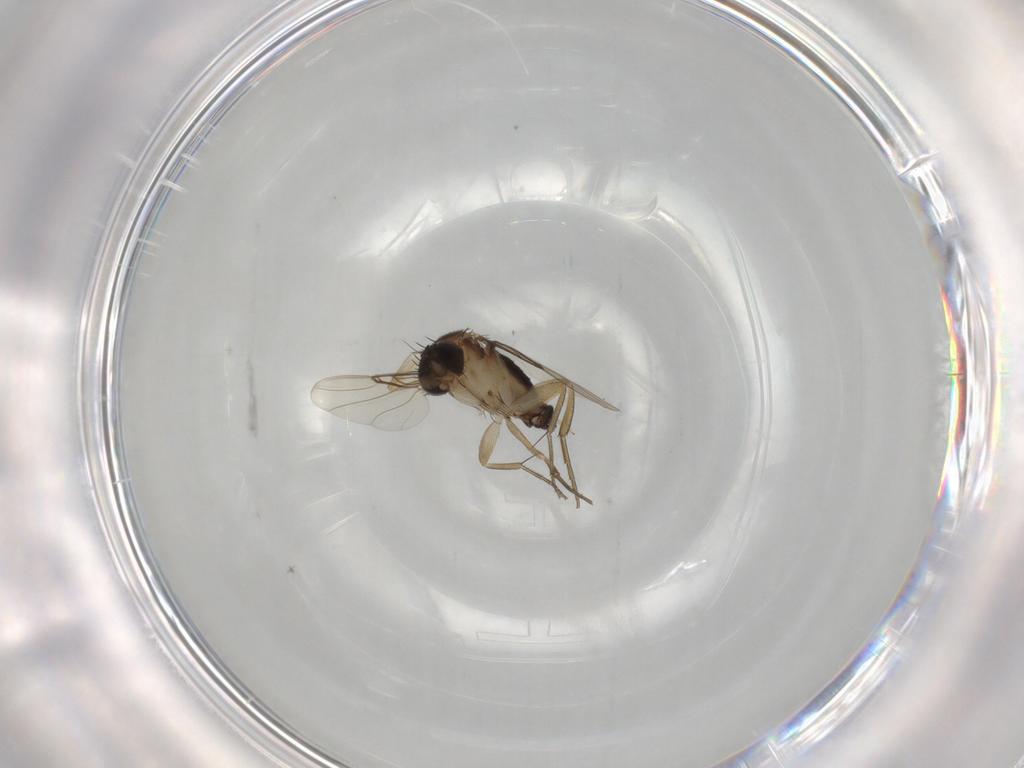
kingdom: Animalia
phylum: Arthropoda
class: Insecta
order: Diptera
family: Phoridae
